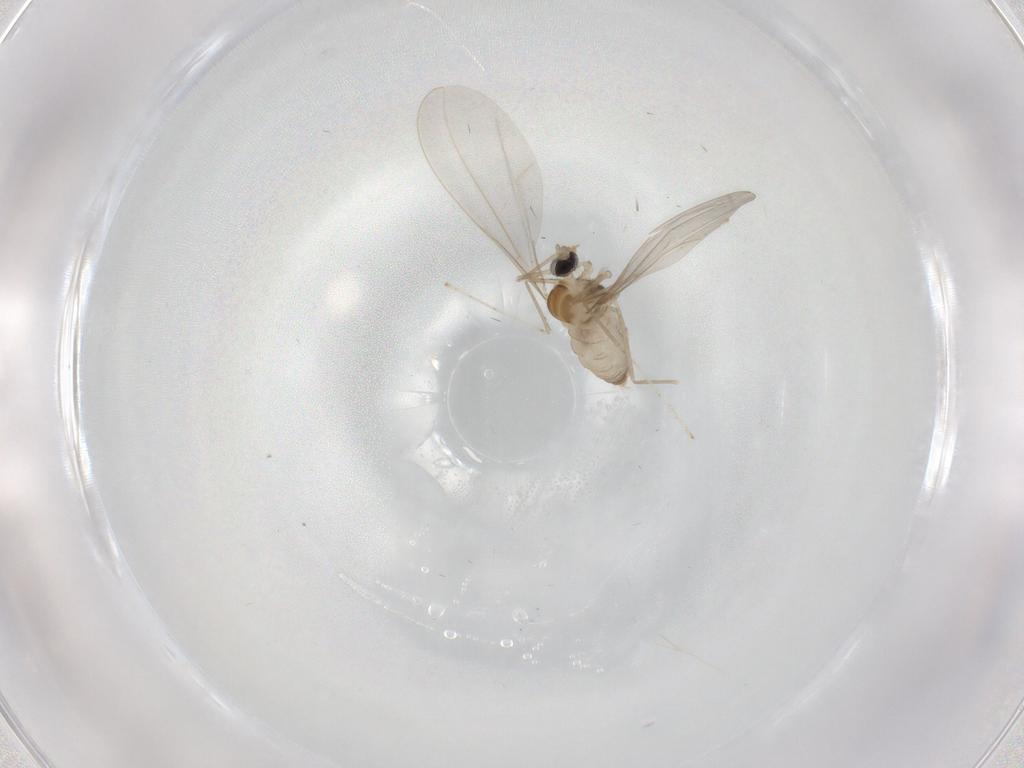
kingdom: Animalia
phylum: Arthropoda
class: Insecta
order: Diptera
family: Cecidomyiidae
